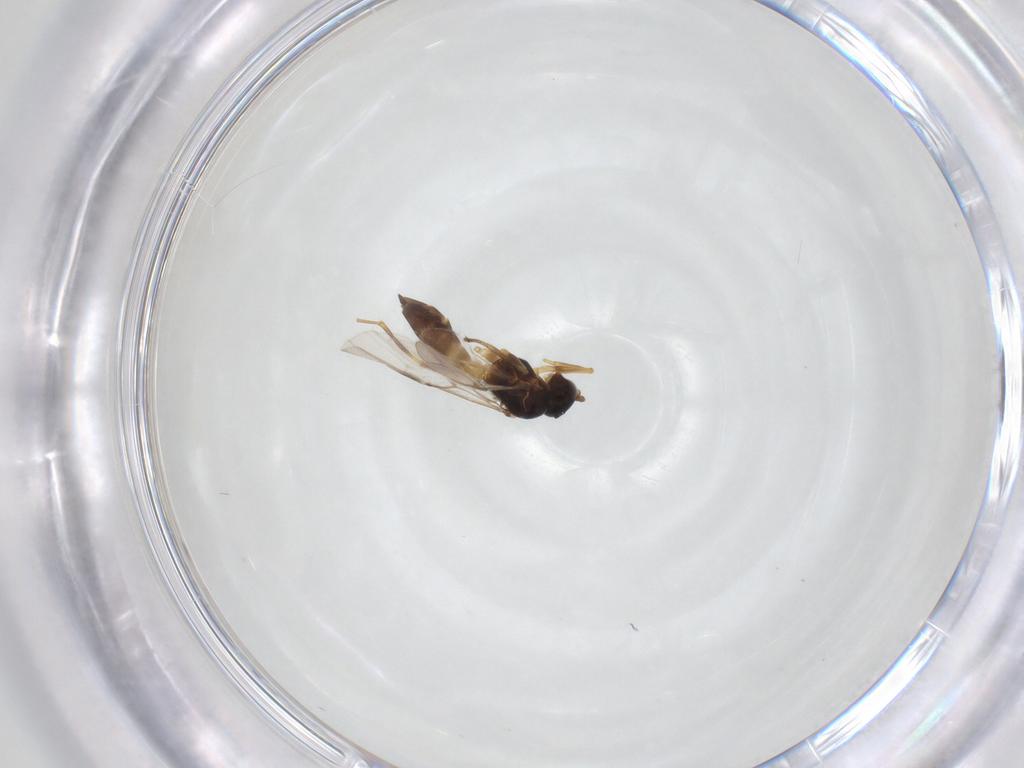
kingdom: Animalia
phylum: Arthropoda
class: Insecta
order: Hymenoptera
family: Braconidae
